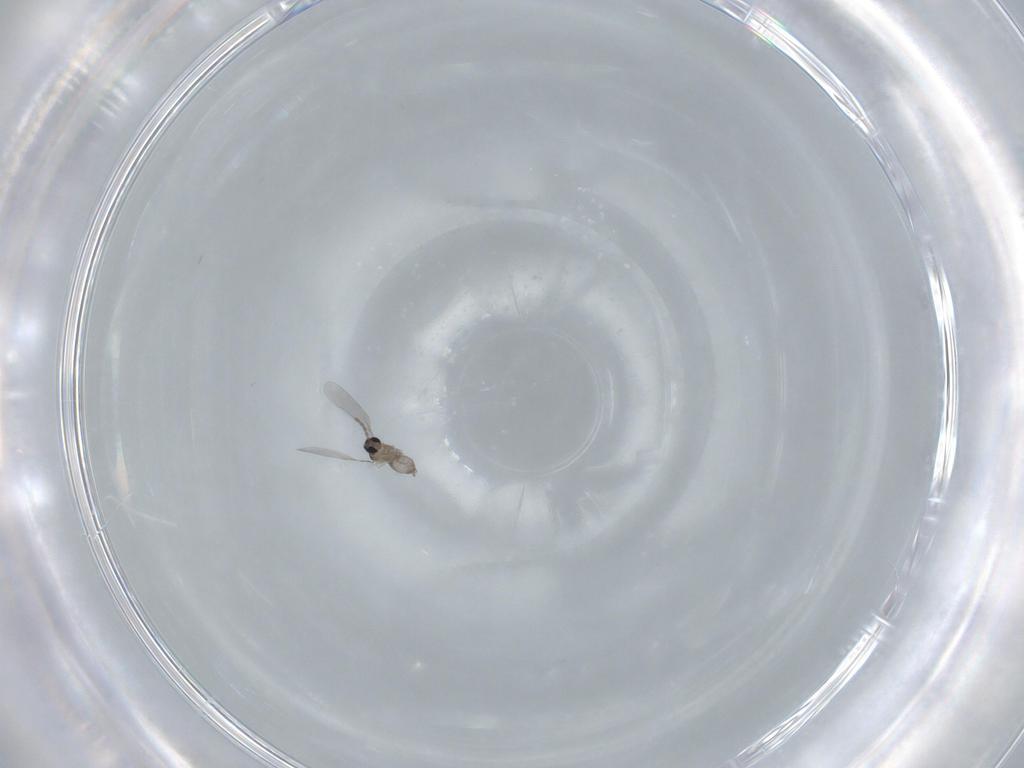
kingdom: Animalia
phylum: Arthropoda
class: Insecta
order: Diptera
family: Cecidomyiidae
